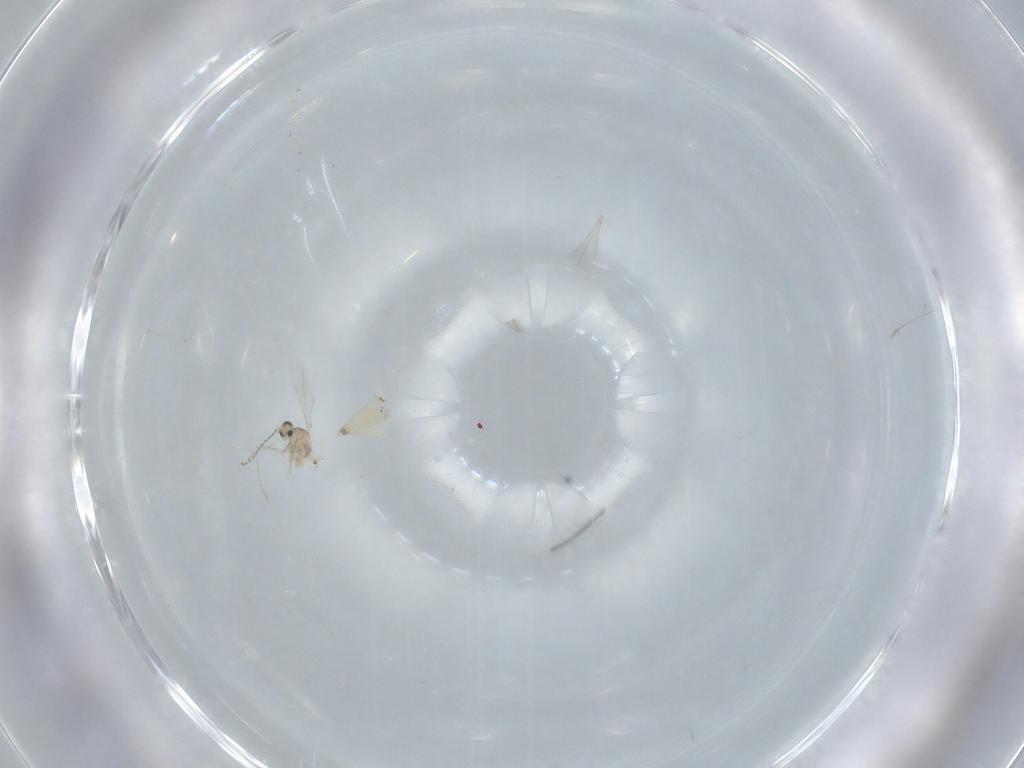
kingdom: Animalia
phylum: Arthropoda
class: Insecta
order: Diptera
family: Cecidomyiidae
